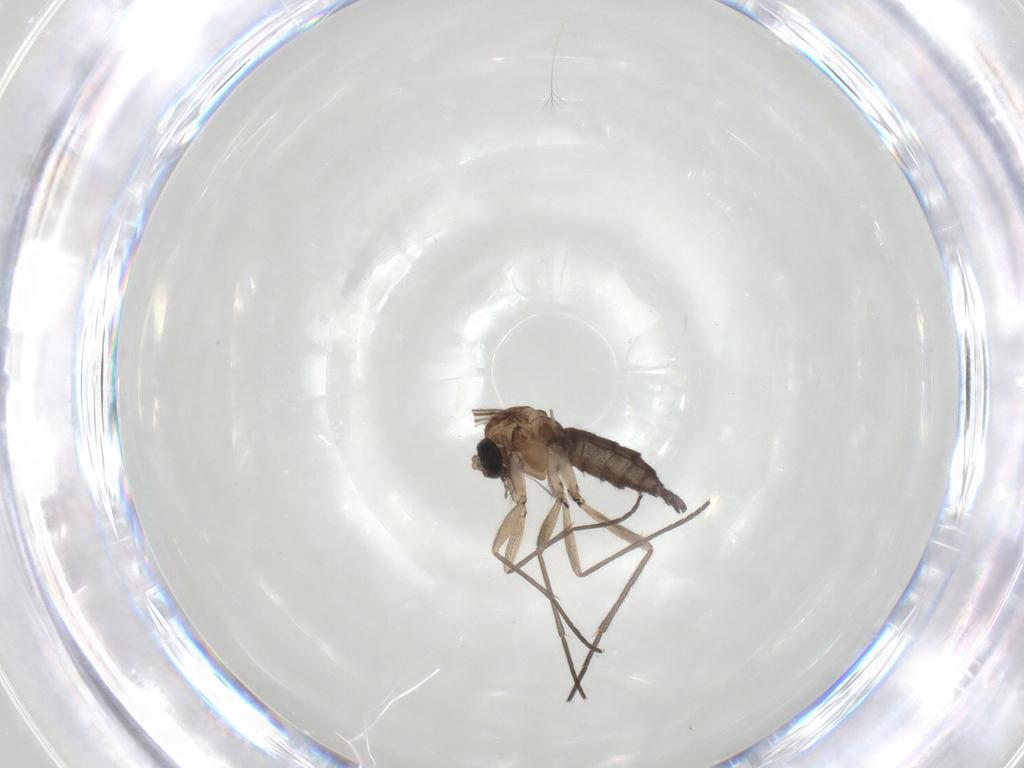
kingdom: Animalia
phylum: Arthropoda
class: Insecta
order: Diptera
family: Sciaridae
